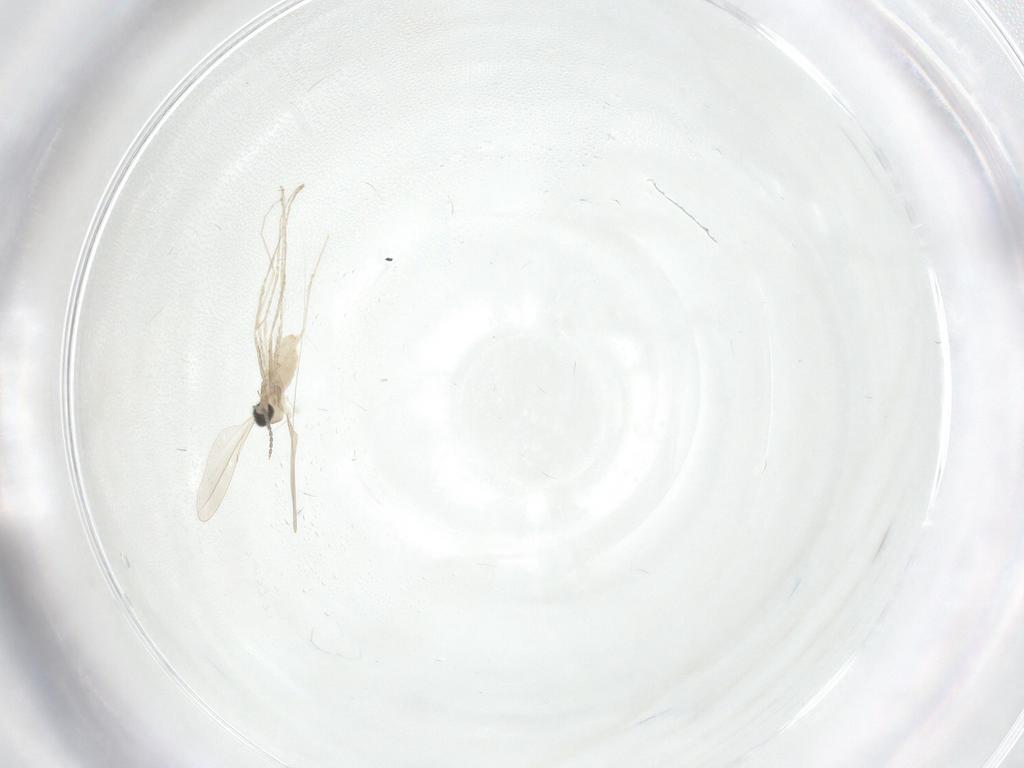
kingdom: Animalia
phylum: Arthropoda
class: Insecta
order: Diptera
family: Cecidomyiidae
